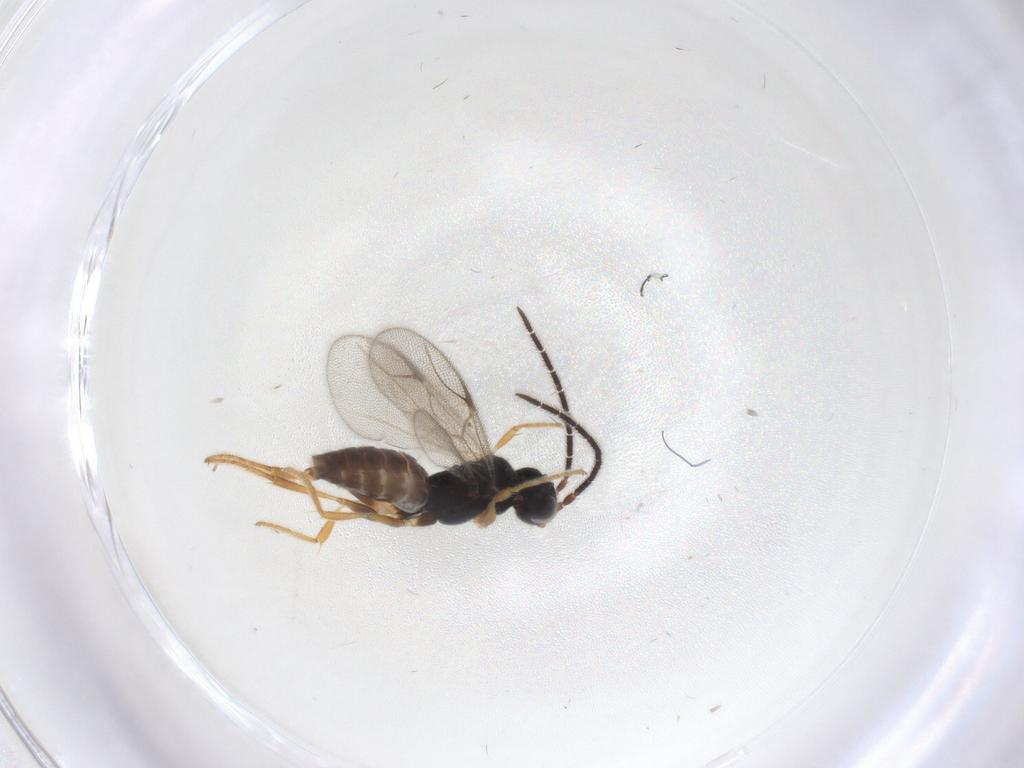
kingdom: Animalia
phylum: Arthropoda
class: Insecta
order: Hymenoptera
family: Dryinidae
